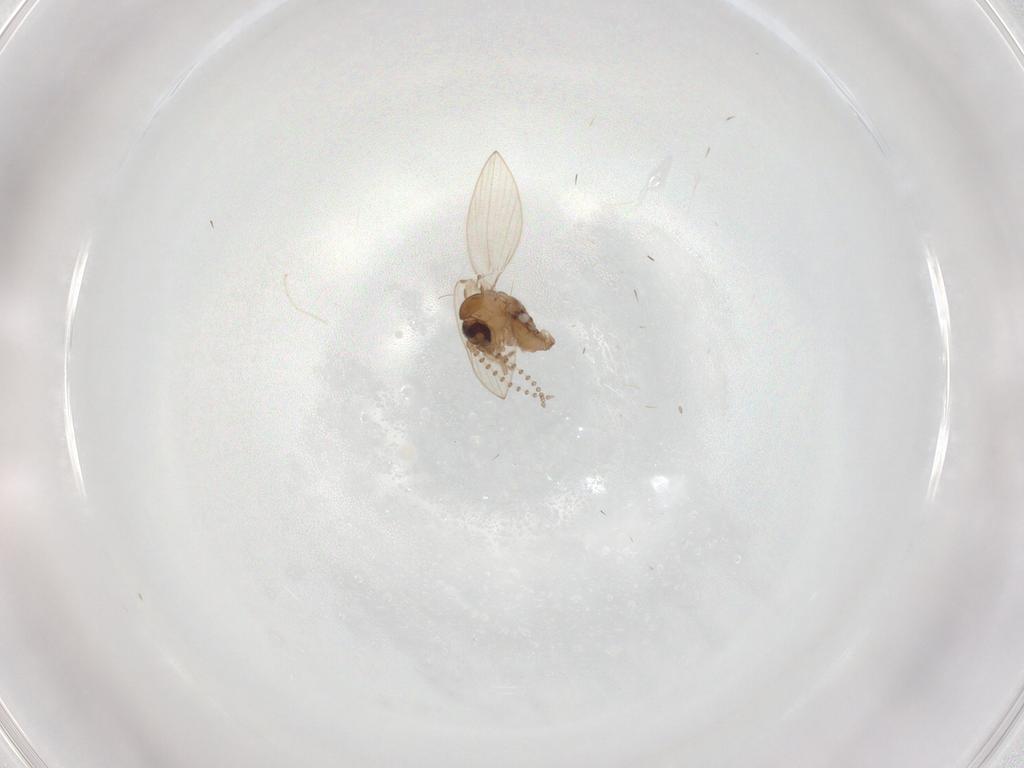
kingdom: Animalia
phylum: Arthropoda
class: Insecta
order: Diptera
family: Psychodidae
